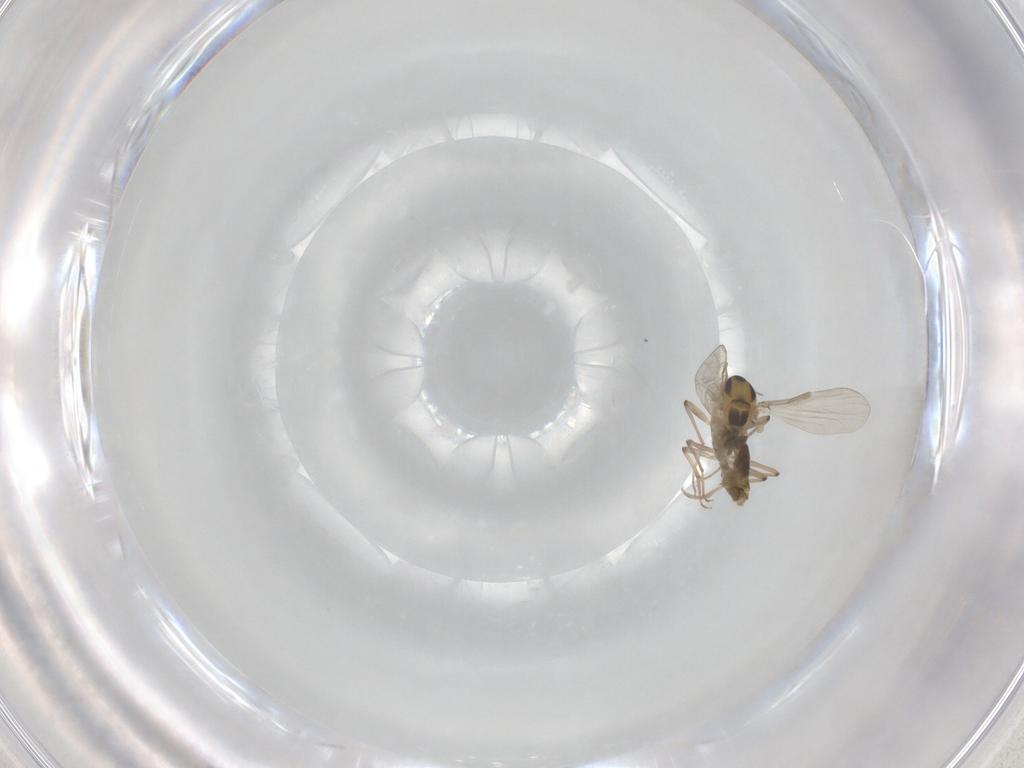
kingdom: Animalia
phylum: Arthropoda
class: Insecta
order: Diptera
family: Chironomidae
